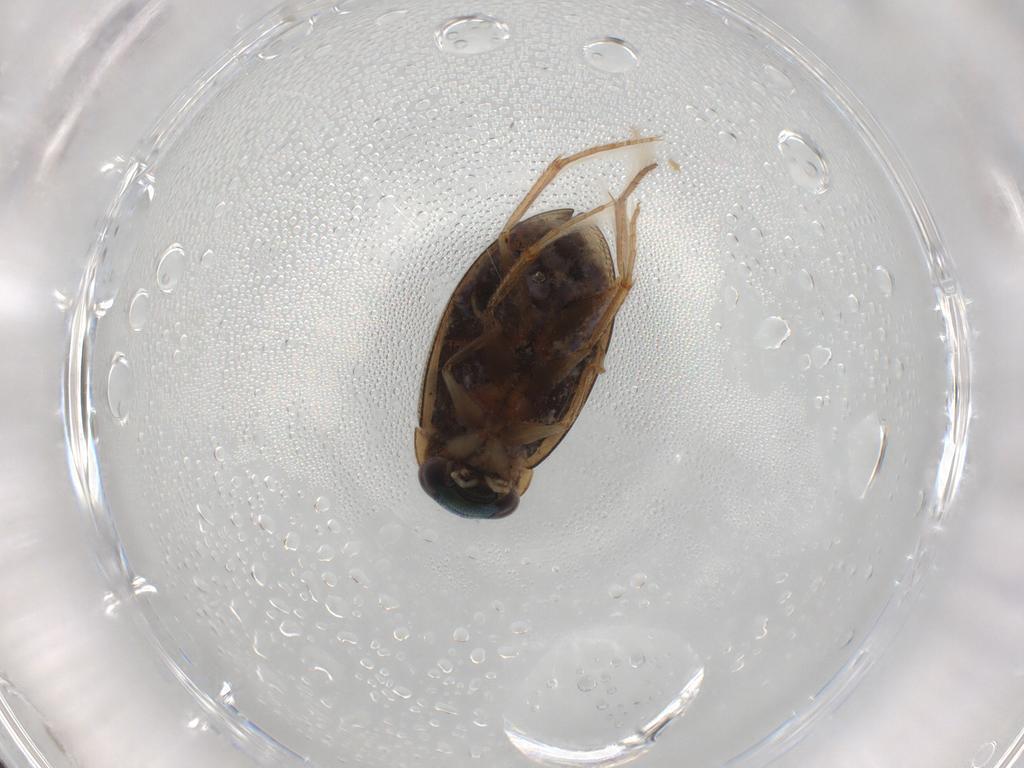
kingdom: Animalia
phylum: Arthropoda
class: Insecta
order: Coleoptera
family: Hydrophilidae
